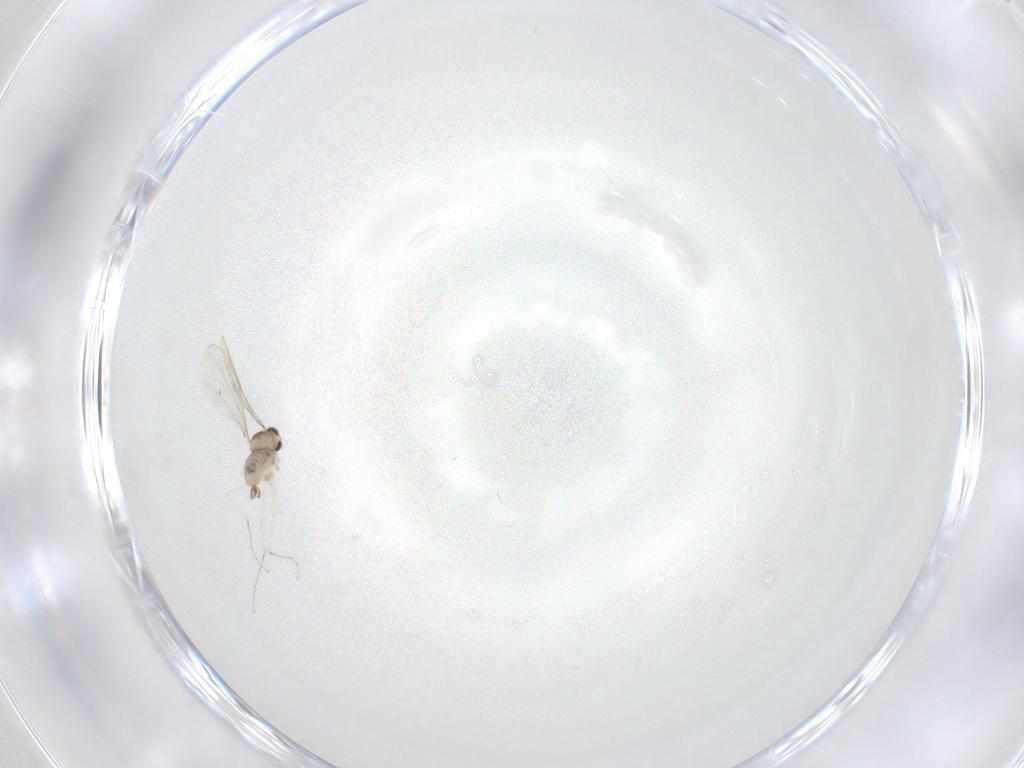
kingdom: Animalia
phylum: Arthropoda
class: Insecta
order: Diptera
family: Cecidomyiidae
